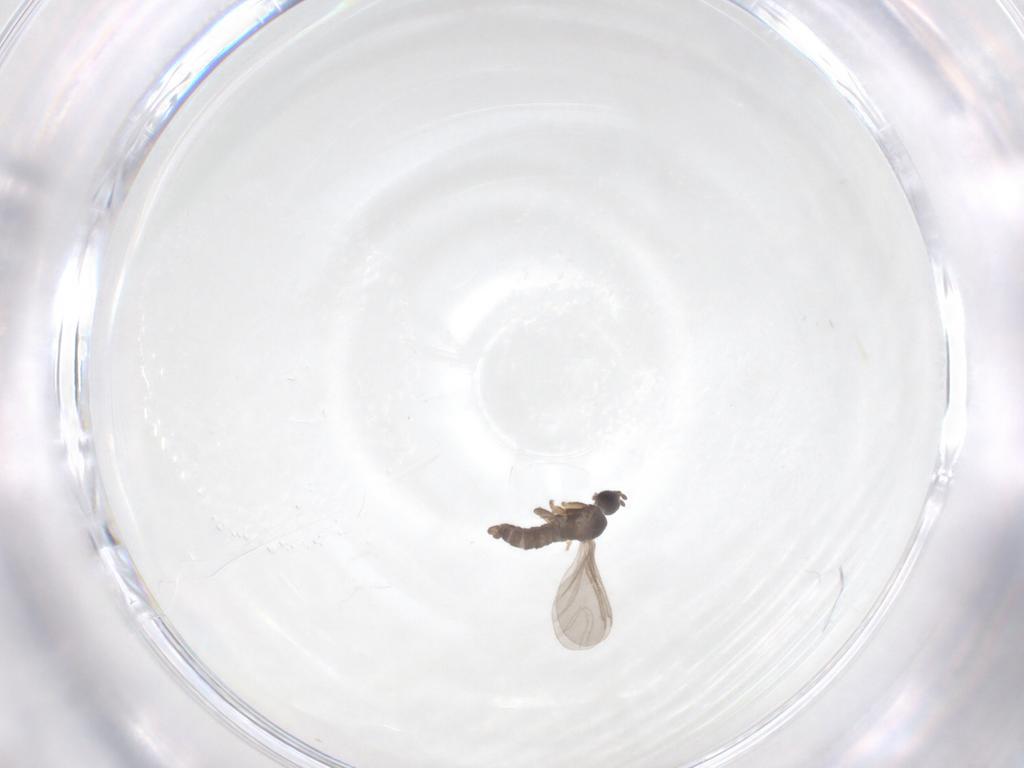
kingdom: Animalia
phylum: Arthropoda
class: Insecta
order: Diptera
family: Sciaridae
